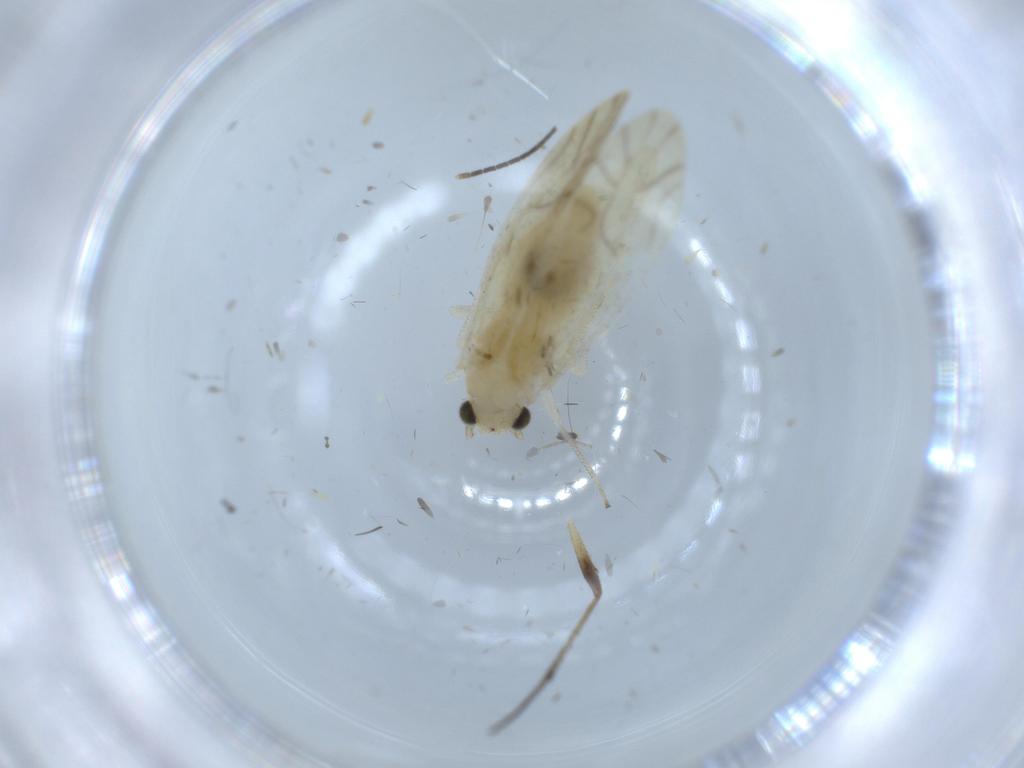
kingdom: Animalia
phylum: Arthropoda
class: Insecta
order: Psocodea
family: Caeciliusidae
